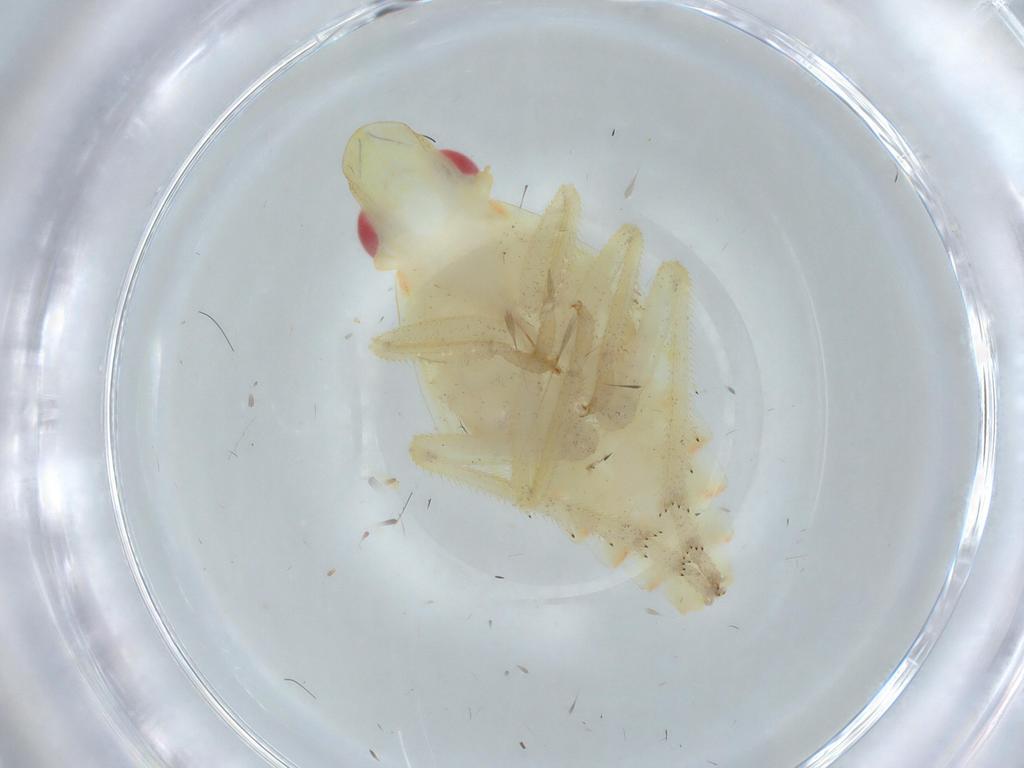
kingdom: Animalia
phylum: Arthropoda
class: Insecta
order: Hemiptera
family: Tropiduchidae
